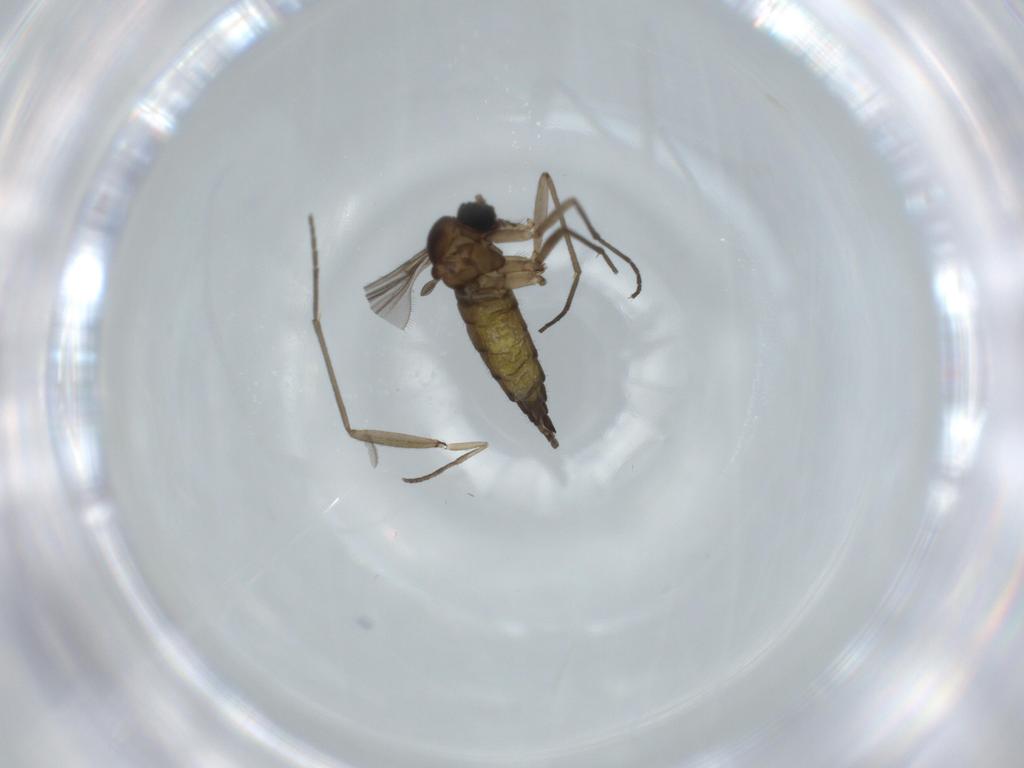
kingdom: Animalia
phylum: Arthropoda
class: Insecta
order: Diptera
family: Sciaridae
